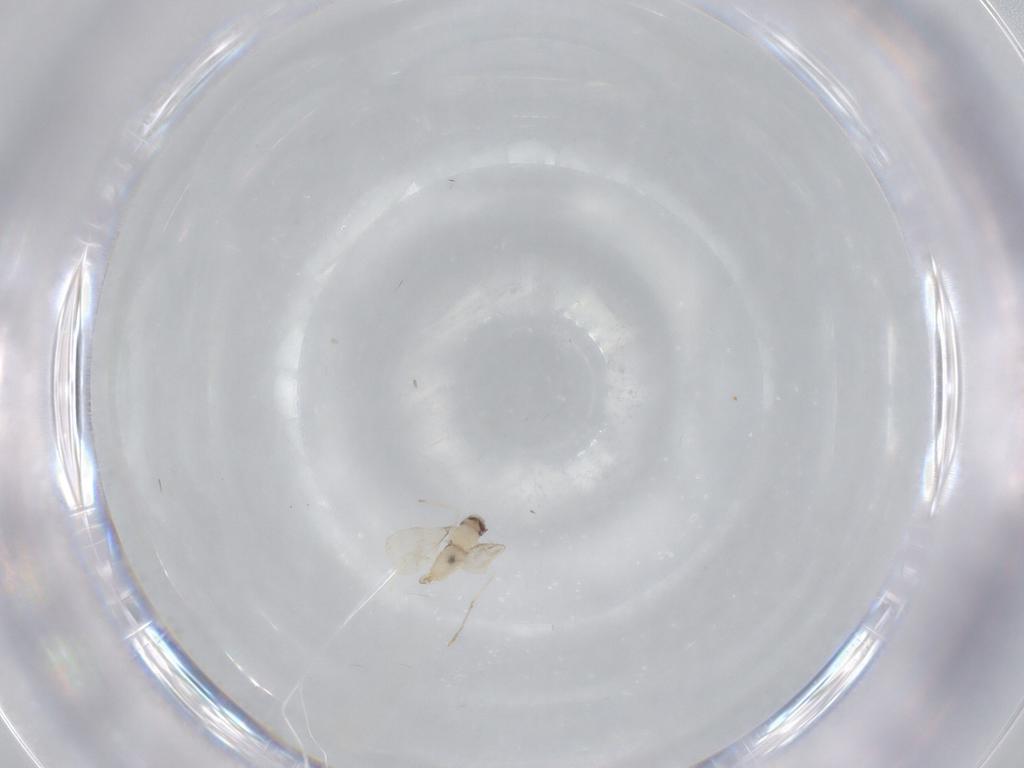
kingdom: Animalia
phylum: Arthropoda
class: Insecta
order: Diptera
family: Cecidomyiidae
